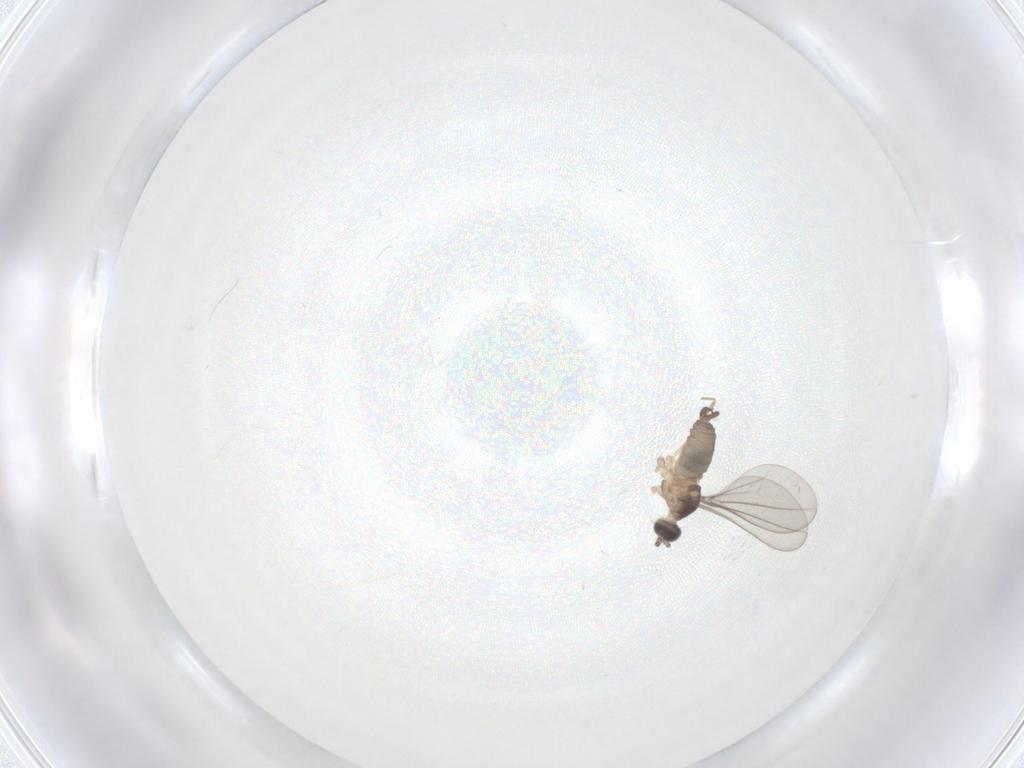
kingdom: Animalia
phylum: Arthropoda
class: Insecta
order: Diptera
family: Cecidomyiidae
